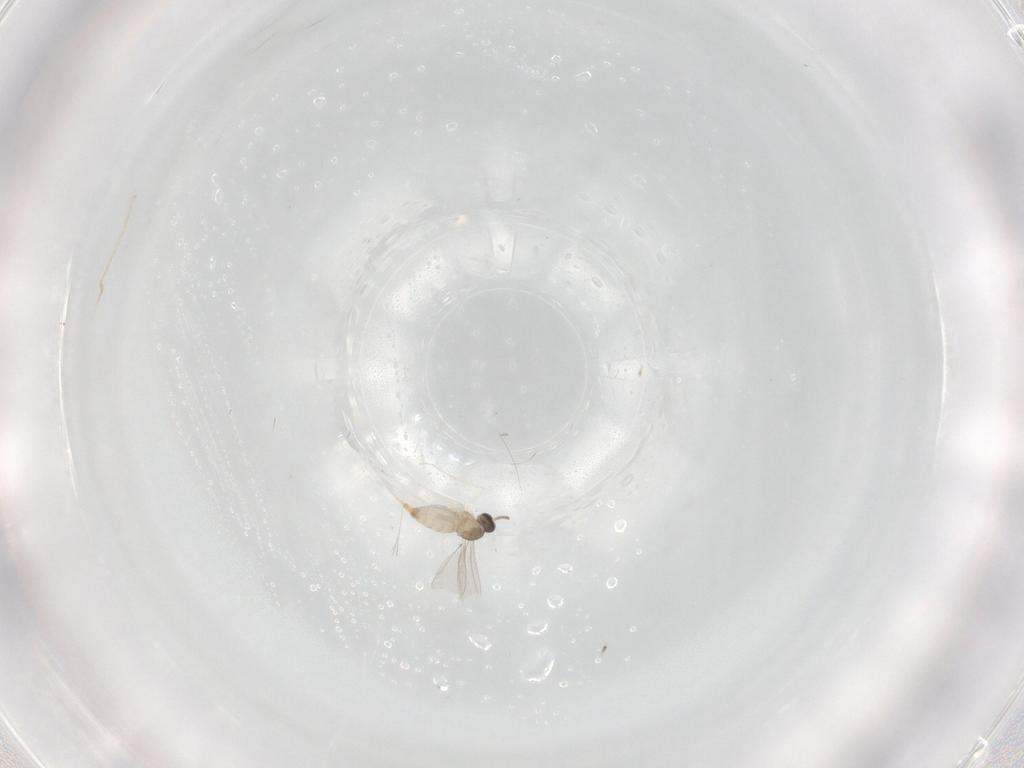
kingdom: Animalia
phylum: Arthropoda
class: Insecta
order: Diptera
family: Cecidomyiidae
